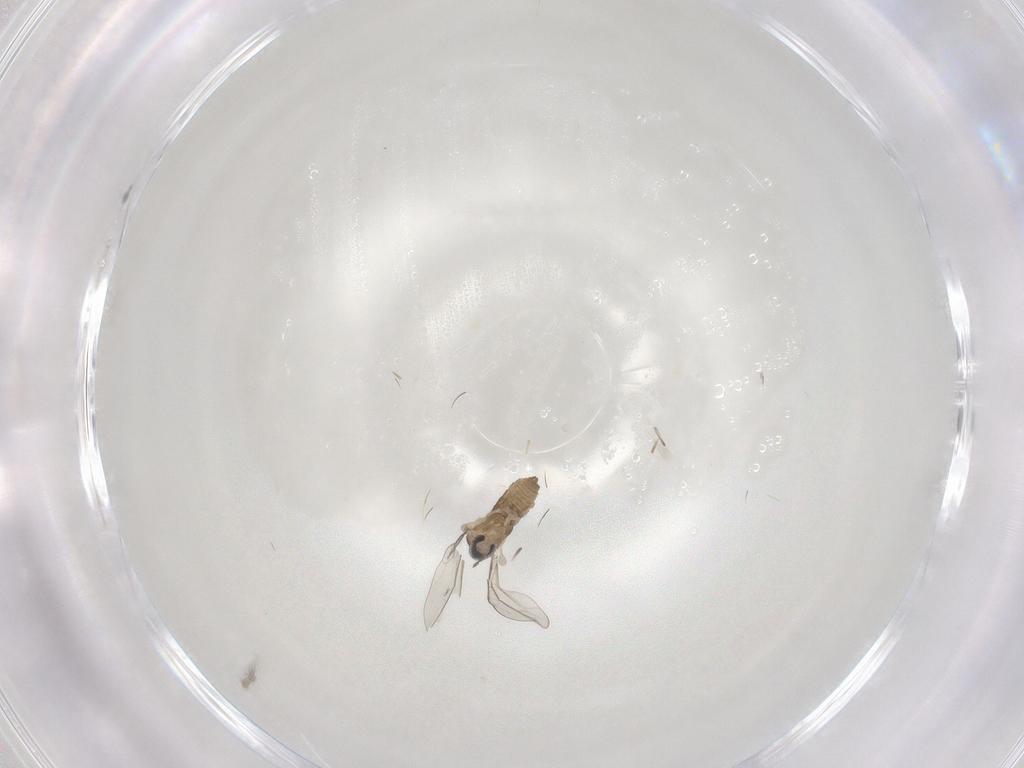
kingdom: Animalia
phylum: Arthropoda
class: Insecta
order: Diptera
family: Cecidomyiidae
